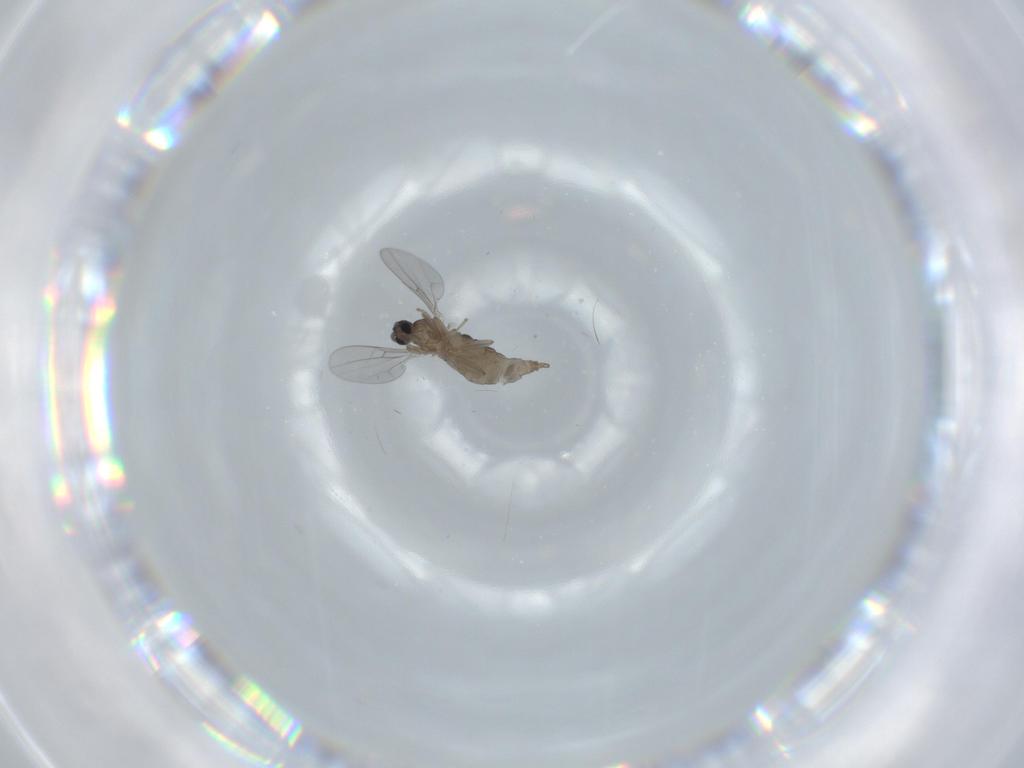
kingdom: Animalia
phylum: Arthropoda
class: Insecta
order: Diptera
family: Cecidomyiidae
